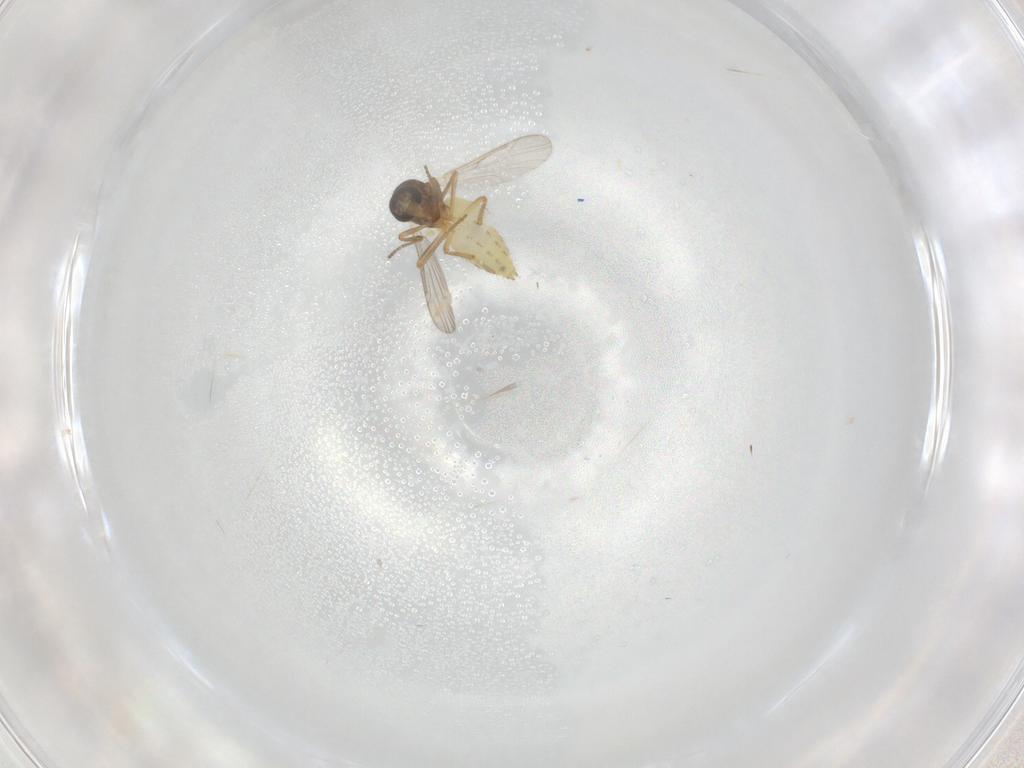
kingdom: Animalia
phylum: Arthropoda
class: Insecta
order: Diptera
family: Ceratopogonidae
